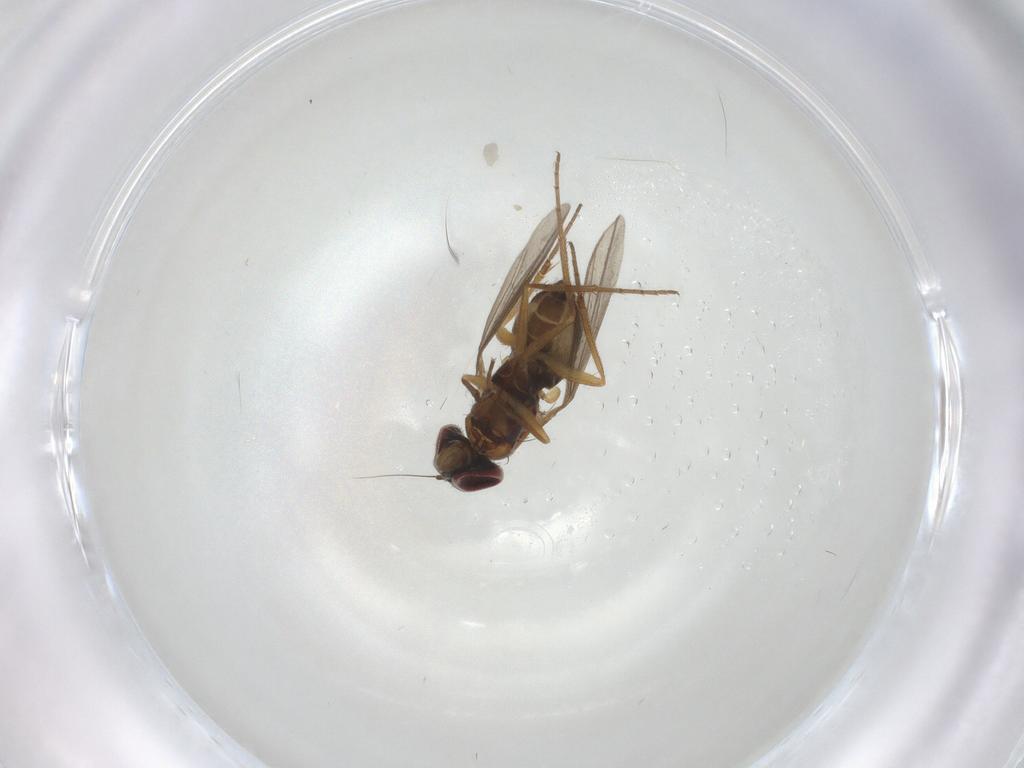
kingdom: Animalia
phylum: Arthropoda
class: Insecta
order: Diptera
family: Dolichopodidae
